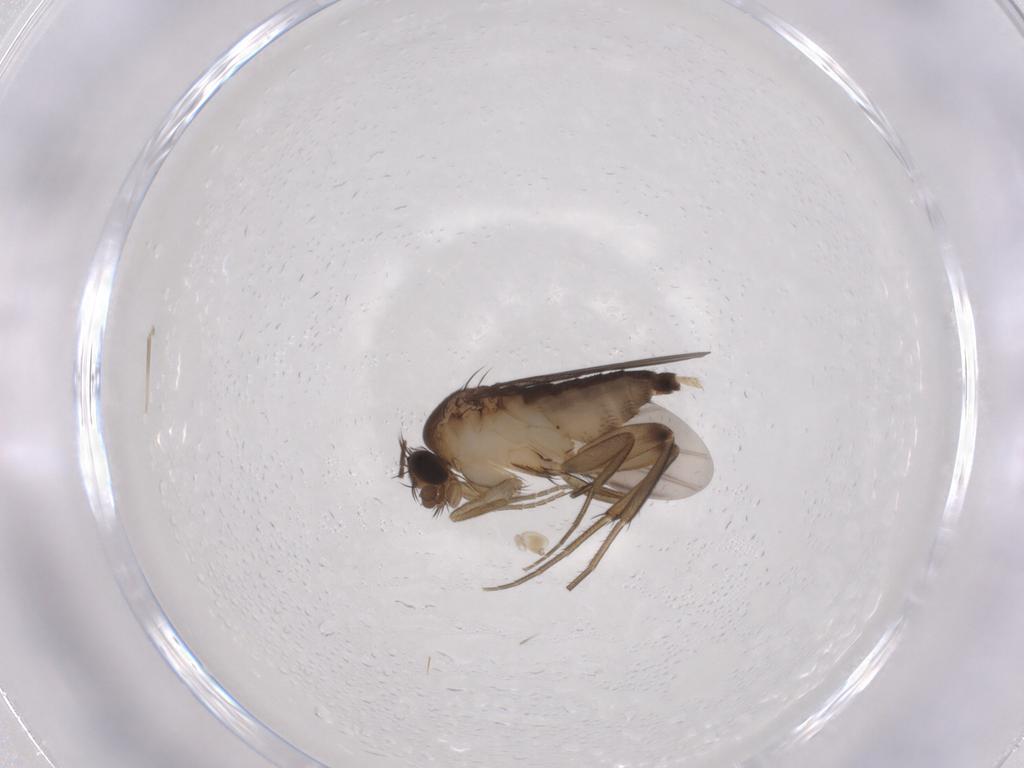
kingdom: Animalia
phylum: Arthropoda
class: Insecta
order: Diptera
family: Phoridae
